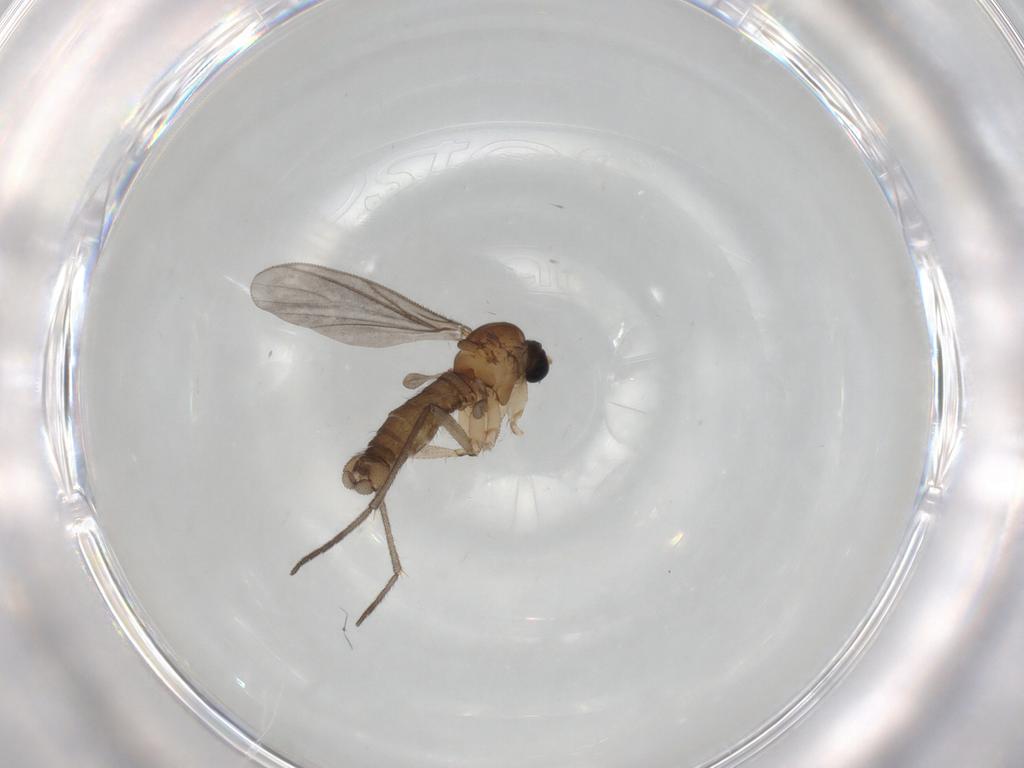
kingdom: Animalia
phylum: Arthropoda
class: Insecta
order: Diptera
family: Sciaridae
